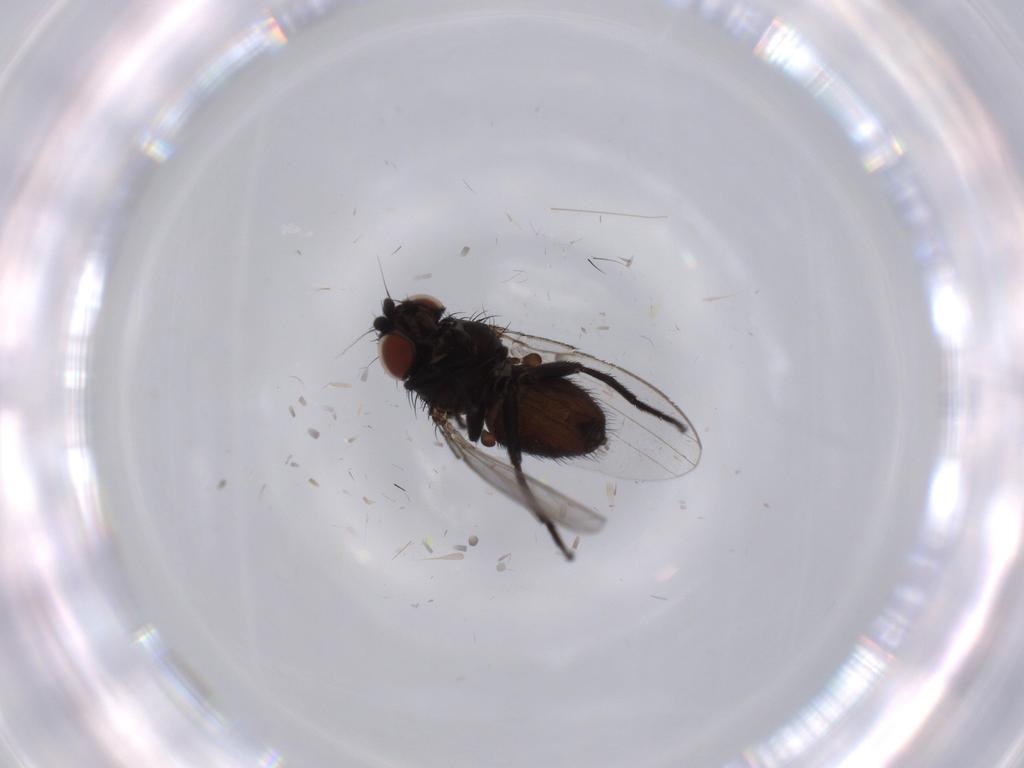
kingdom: Animalia
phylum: Arthropoda
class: Insecta
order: Diptera
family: Milichiidae
